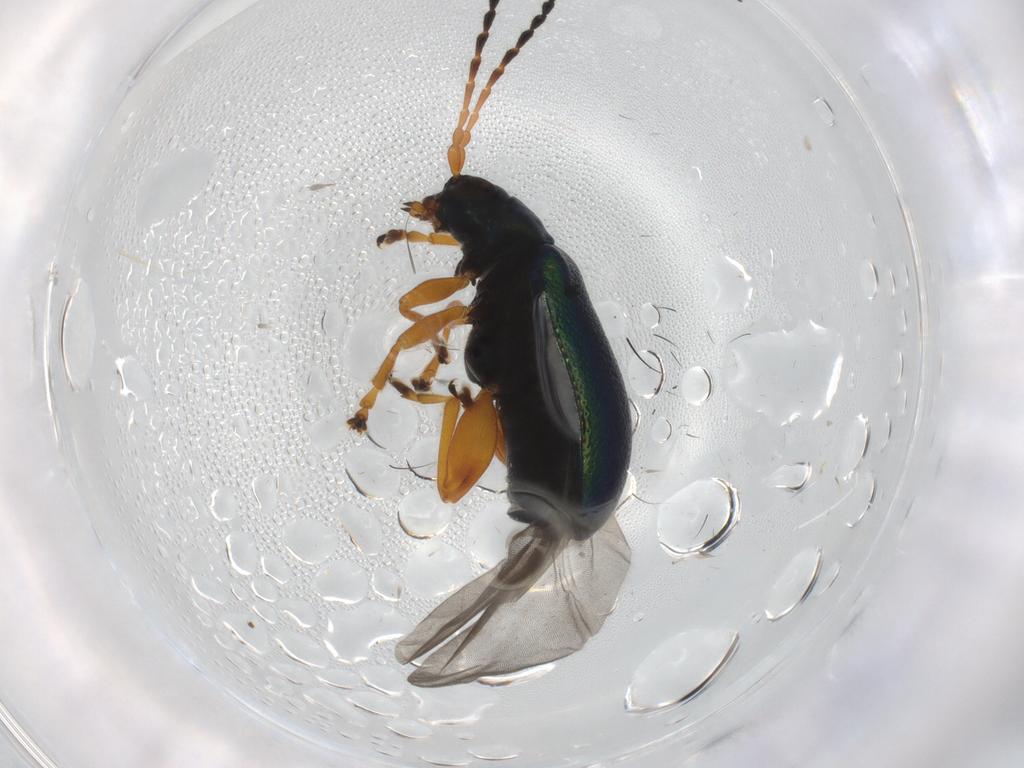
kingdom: Animalia
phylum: Arthropoda
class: Insecta
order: Coleoptera
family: Chrysomelidae
